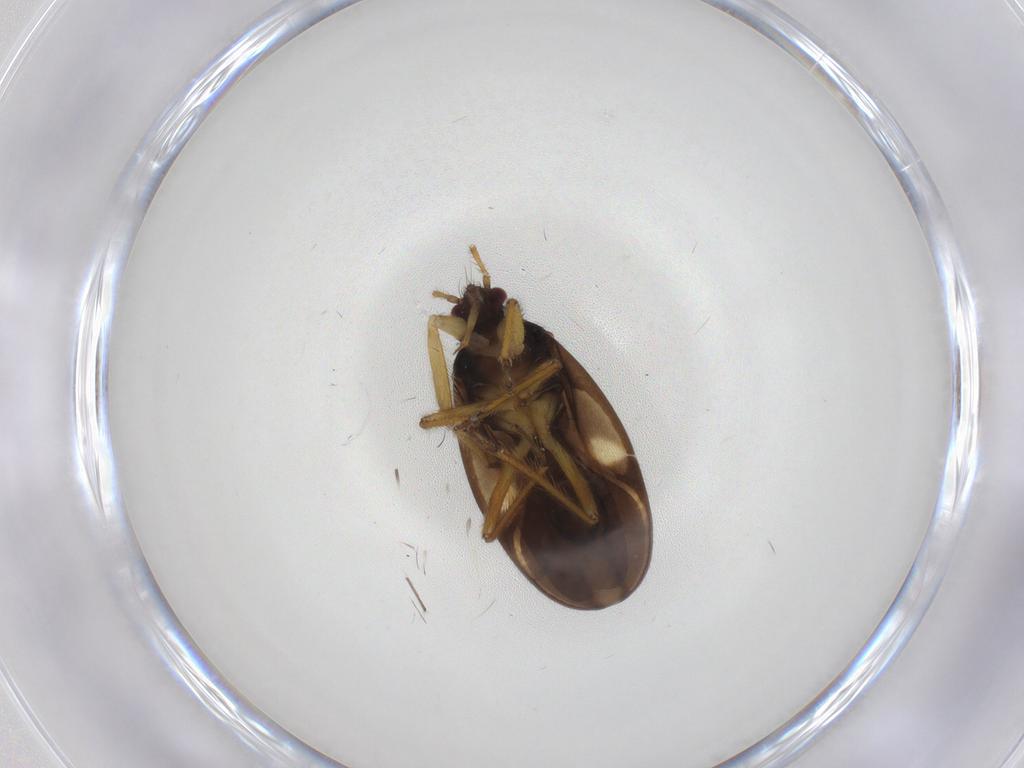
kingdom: Animalia
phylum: Arthropoda
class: Insecta
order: Hemiptera
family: Ceratocombidae
